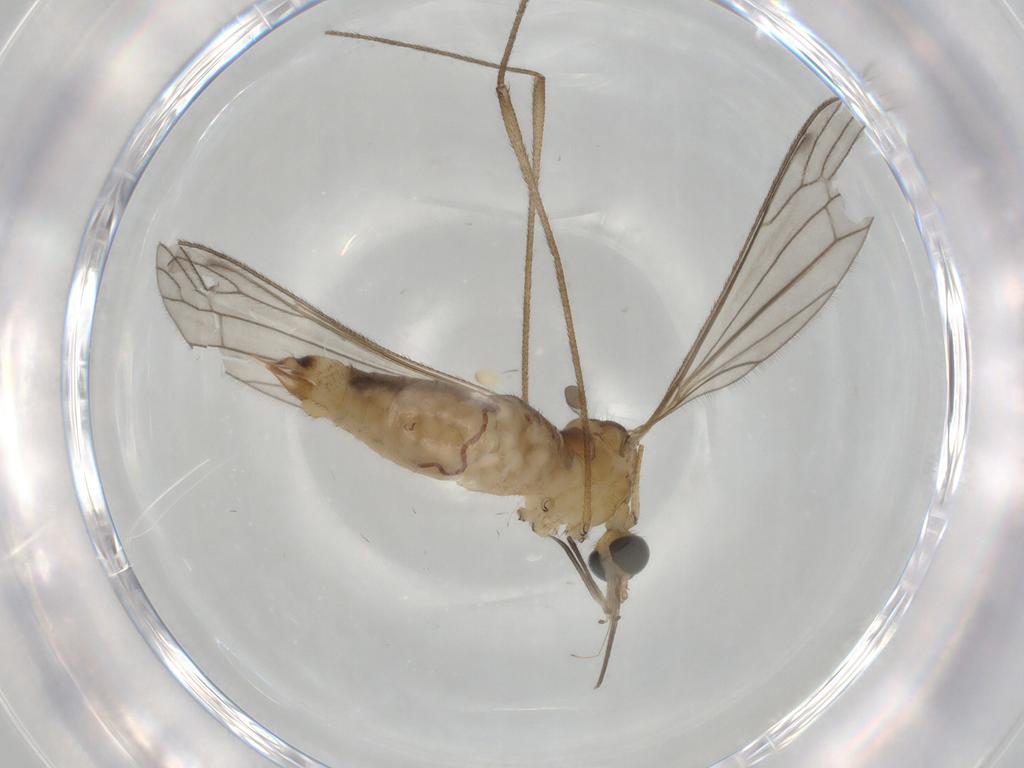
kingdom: Animalia
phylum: Arthropoda
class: Insecta
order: Diptera
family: Limoniidae
